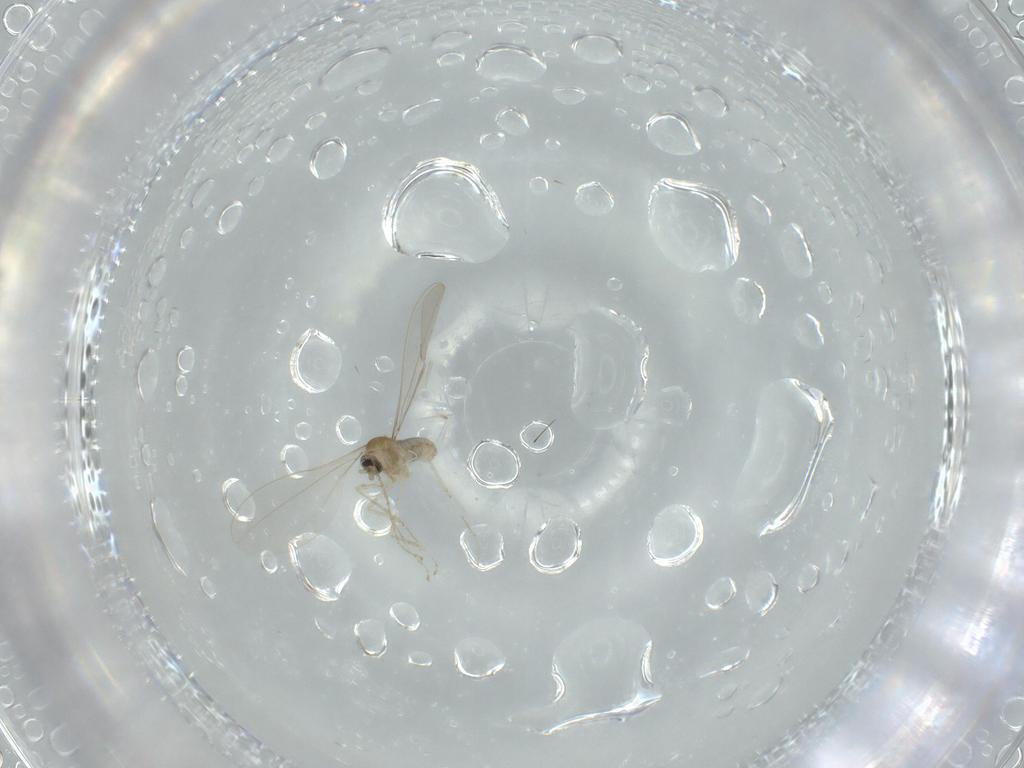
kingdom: Animalia
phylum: Arthropoda
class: Insecta
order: Diptera
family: Cecidomyiidae
